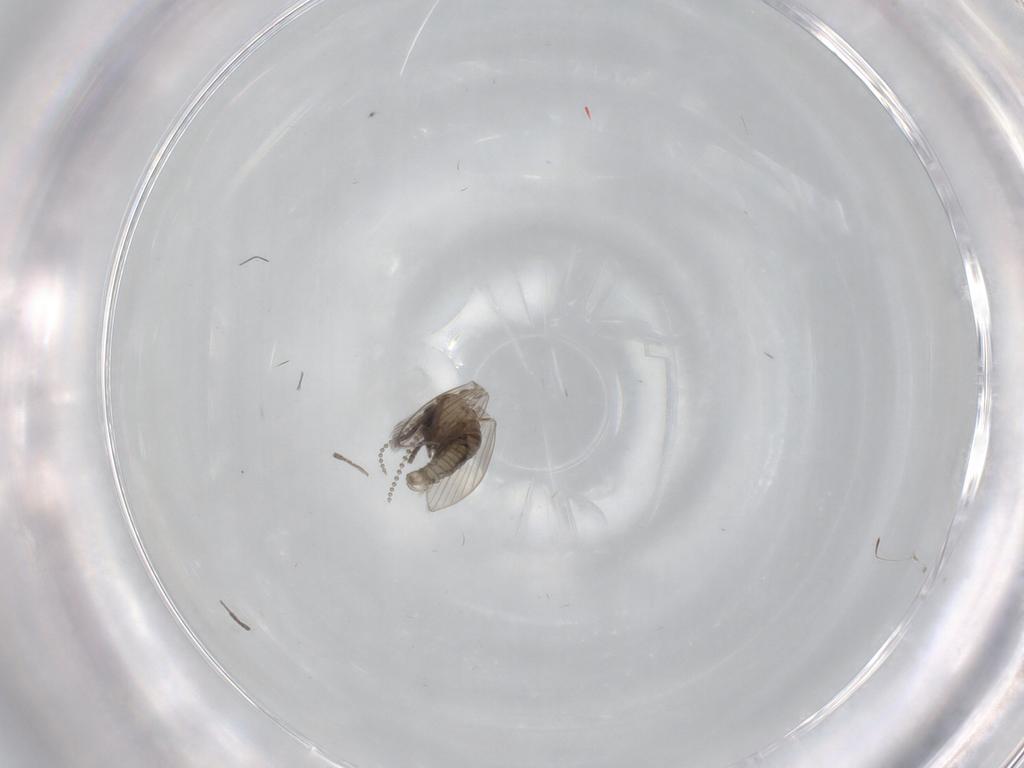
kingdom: Animalia
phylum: Arthropoda
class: Insecta
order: Diptera
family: Psychodidae
